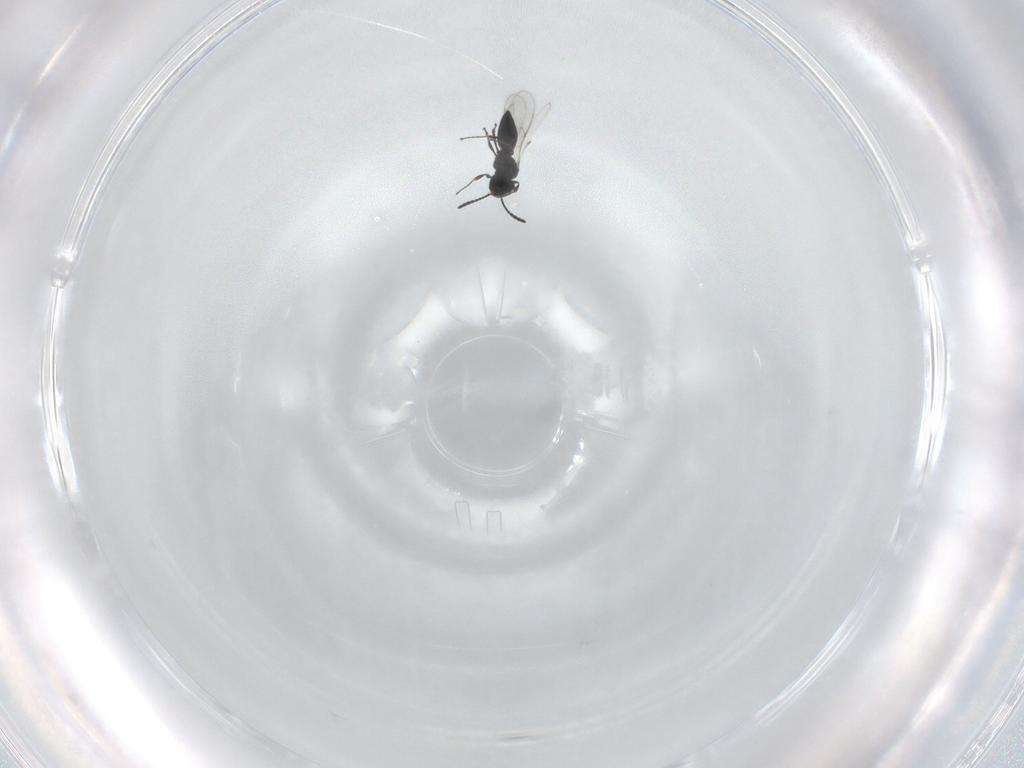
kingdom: Animalia
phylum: Arthropoda
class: Insecta
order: Hymenoptera
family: Scelionidae
